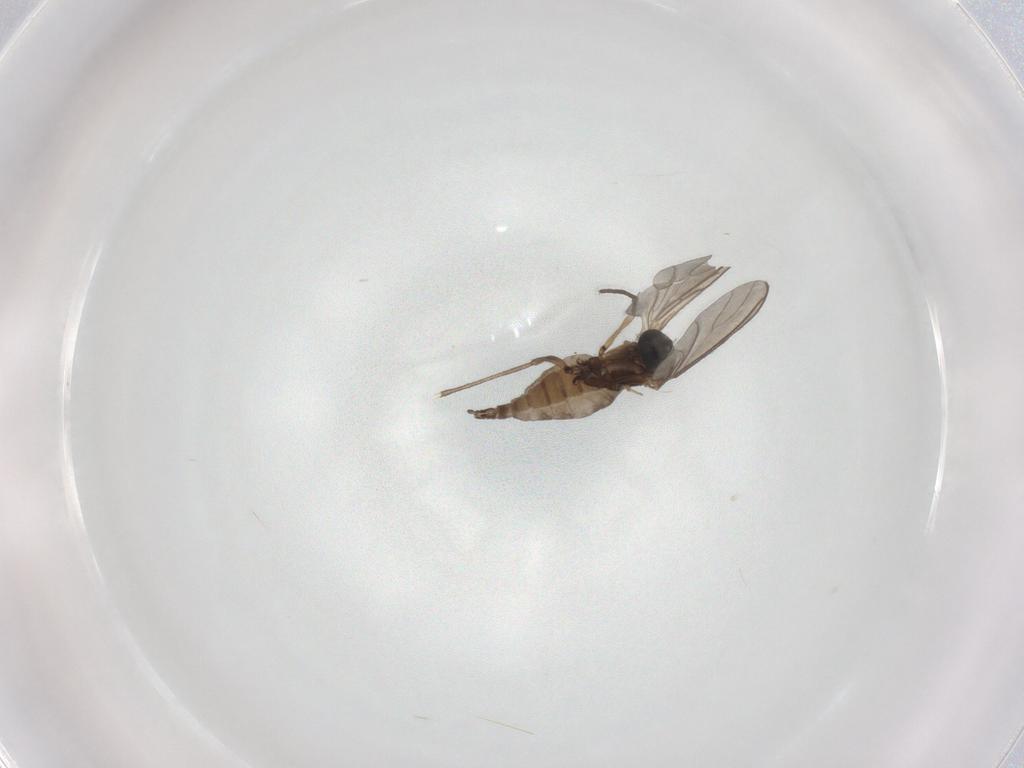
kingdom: Animalia
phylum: Arthropoda
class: Insecta
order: Diptera
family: Sciaridae
